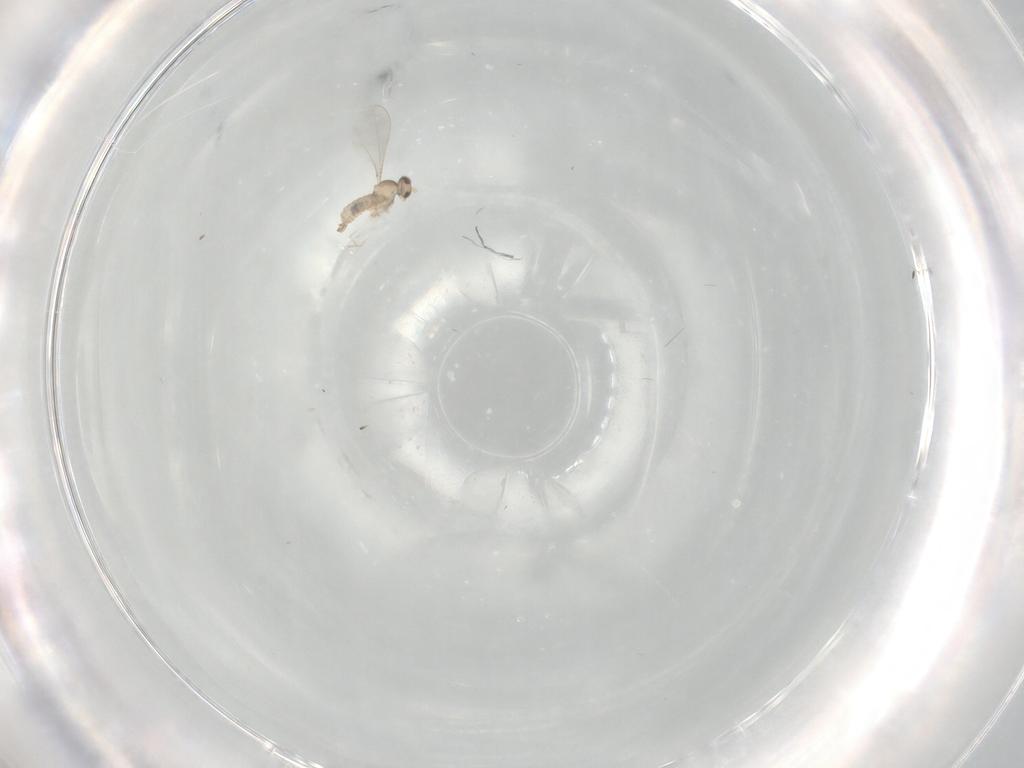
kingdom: Animalia
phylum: Arthropoda
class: Insecta
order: Diptera
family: Cecidomyiidae
